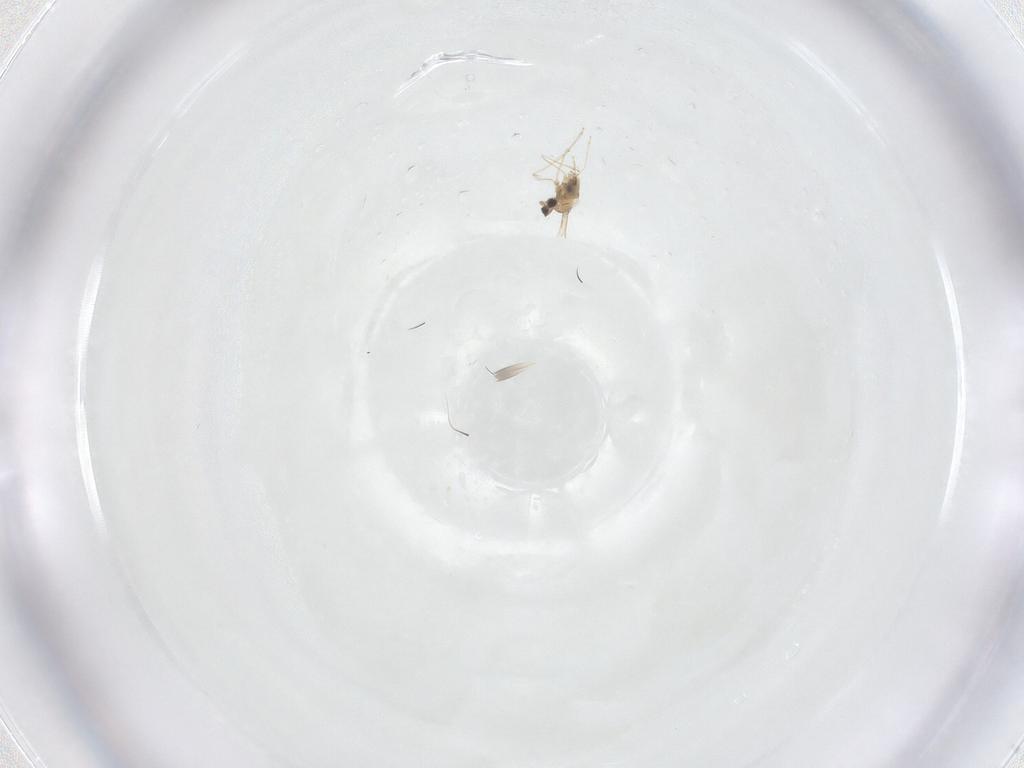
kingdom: Animalia
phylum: Arthropoda
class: Insecta
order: Diptera
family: Cecidomyiidae
